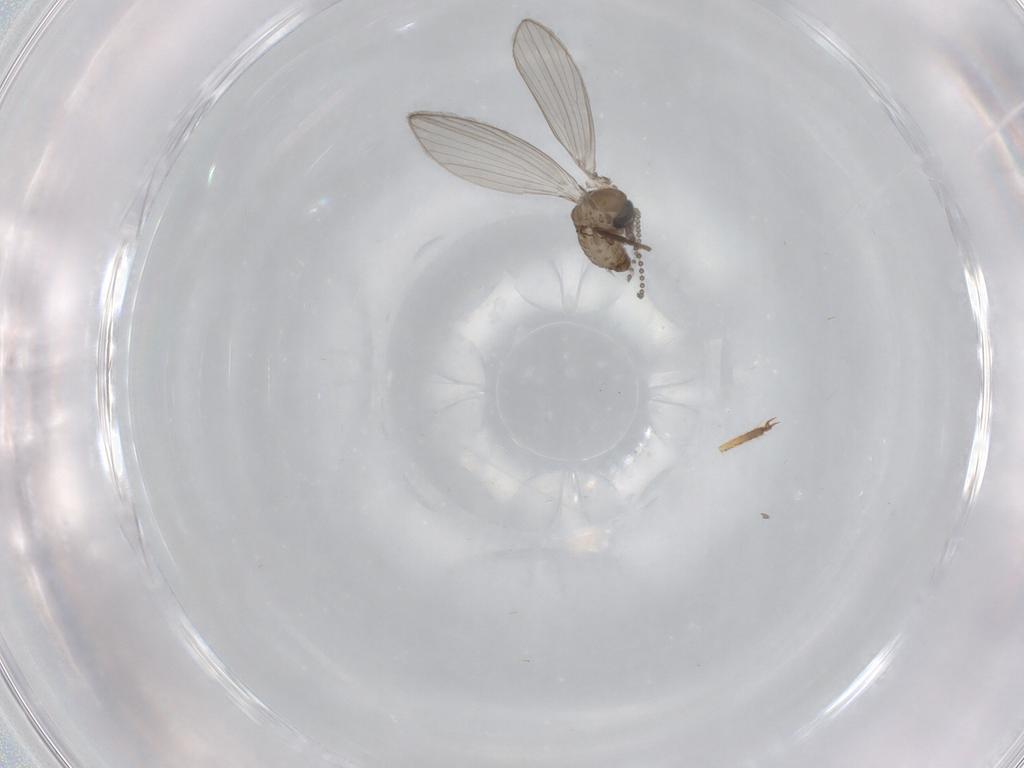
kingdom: Animalia
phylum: Arthropoda
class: Insecta
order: Diptera
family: Psychodidae
